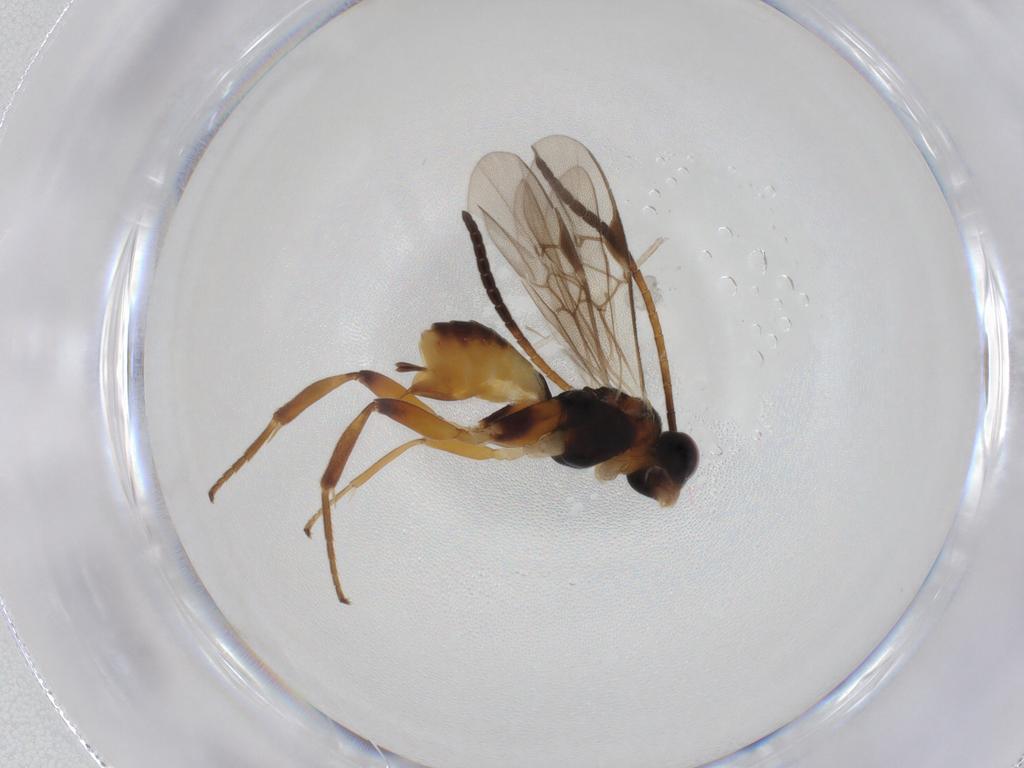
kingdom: Animalia
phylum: Arthropoda
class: Insecta
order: Hymenoptera
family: Braconidae
